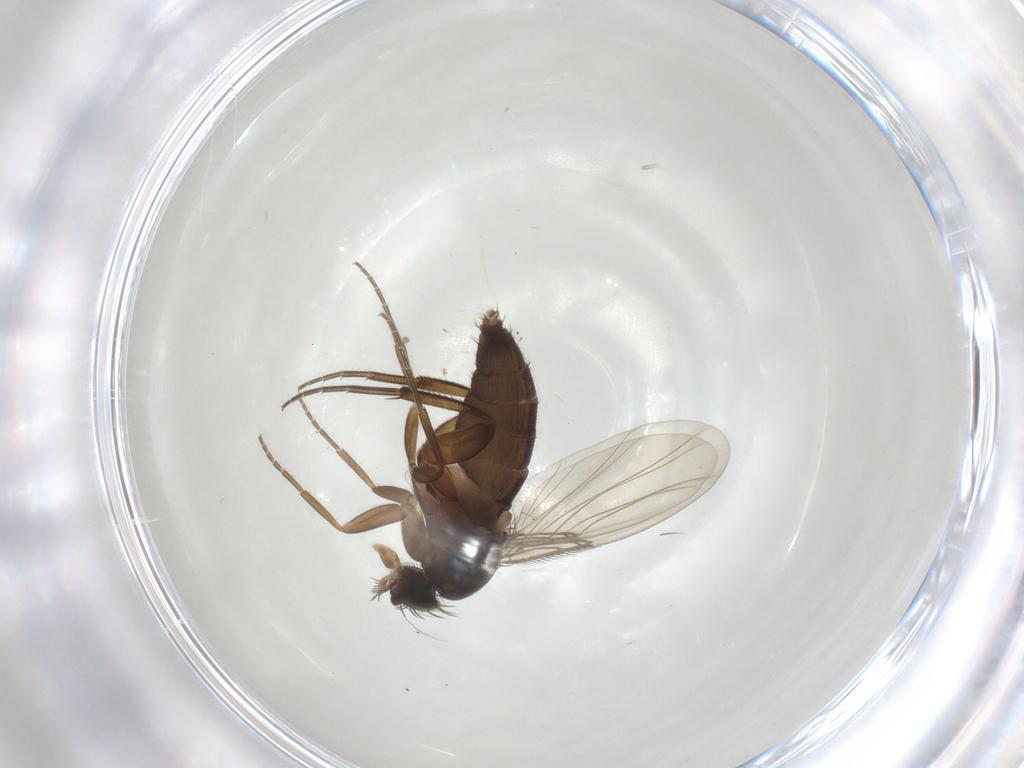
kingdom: Animalia
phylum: Arthropoda
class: Insecta
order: Diptera
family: Phoridae
